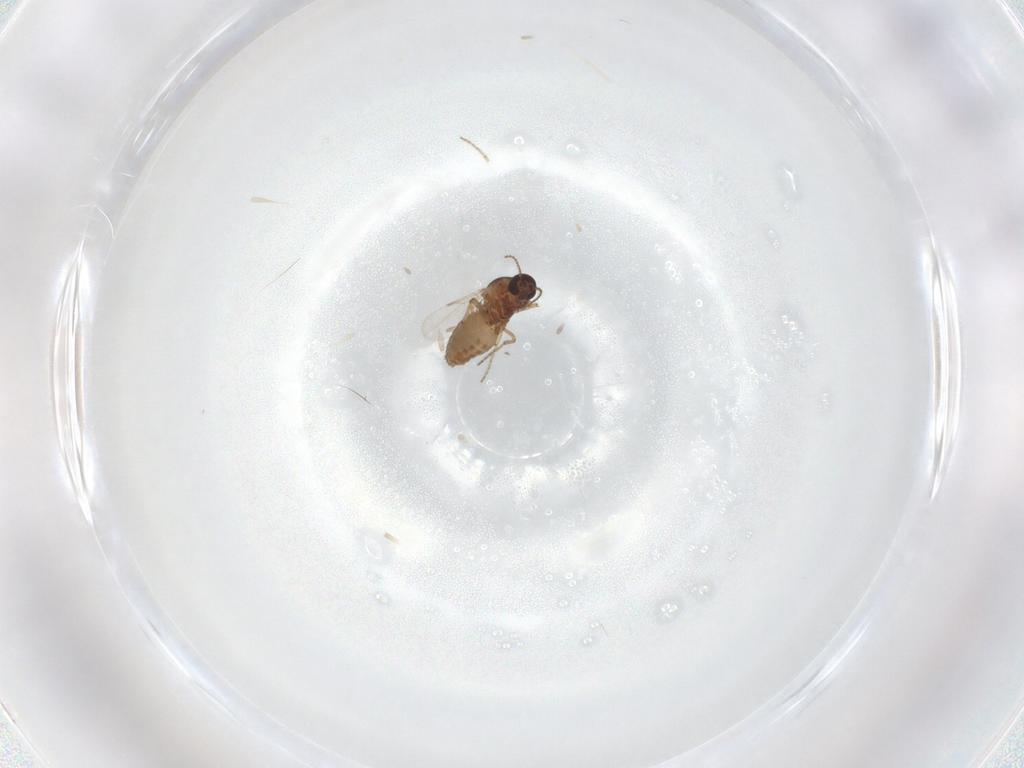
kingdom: Animalia
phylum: Arthropoda
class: Insecta
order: Diptera
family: Ceratopogonidae
